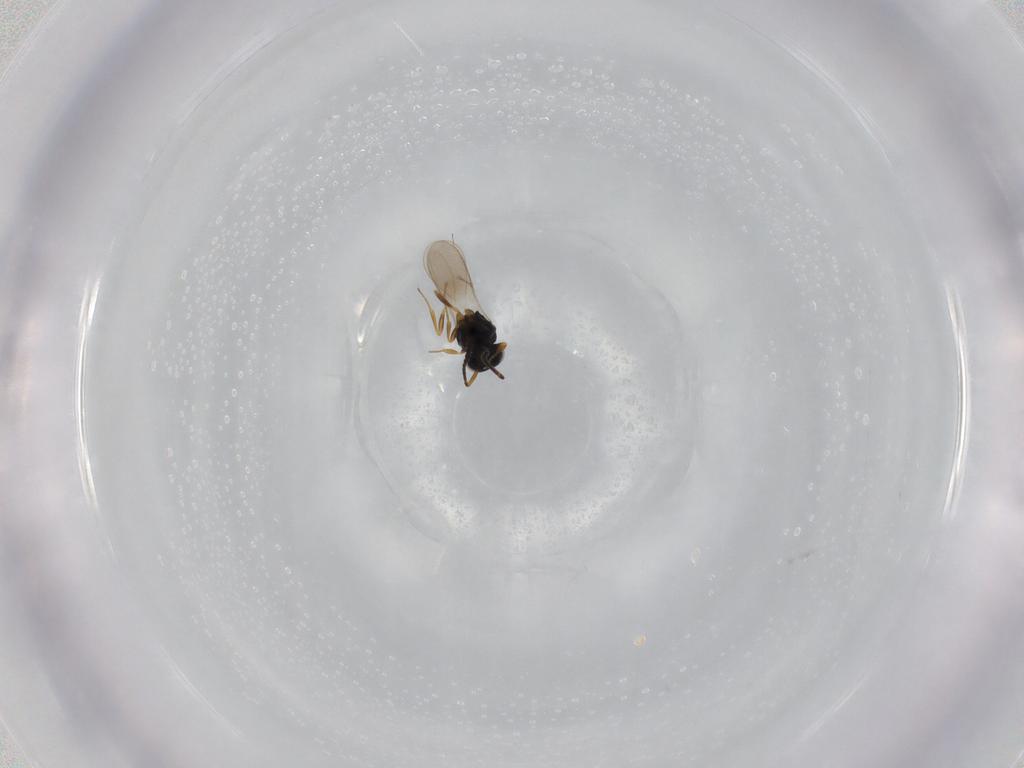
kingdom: Animalia
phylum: Arthropoda
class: Insecta
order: Hymenoptera
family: Scelionidae
